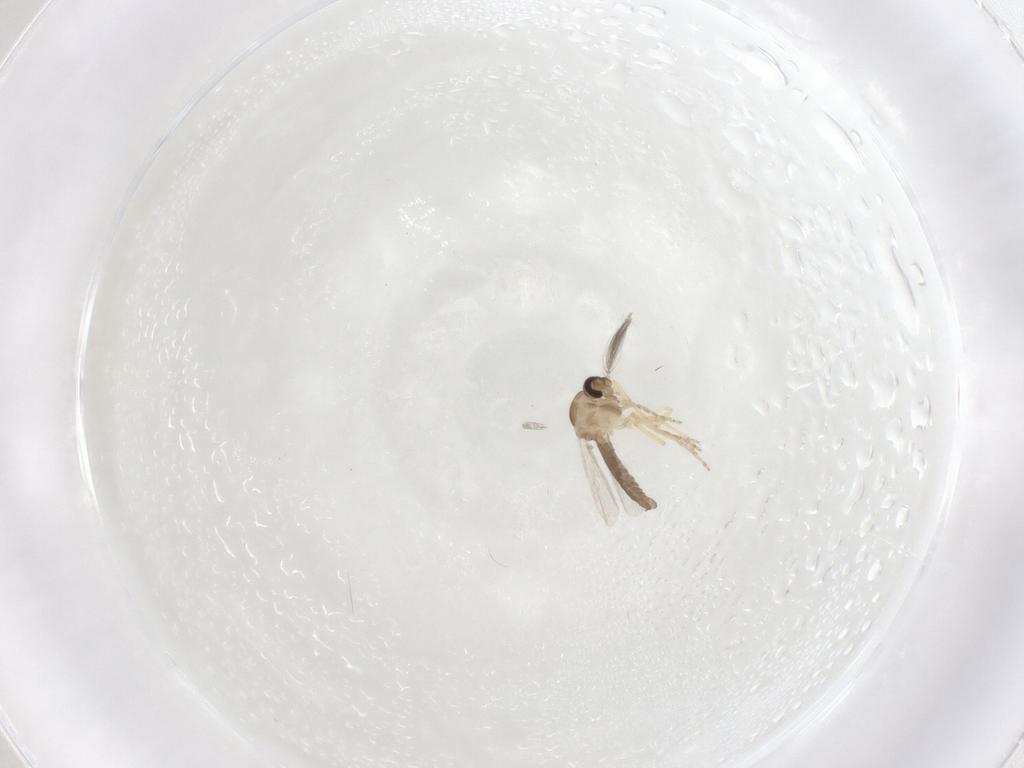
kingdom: Animalia
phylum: Arthropoda
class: Insecta
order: Diptera
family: Ceratopogonidae
